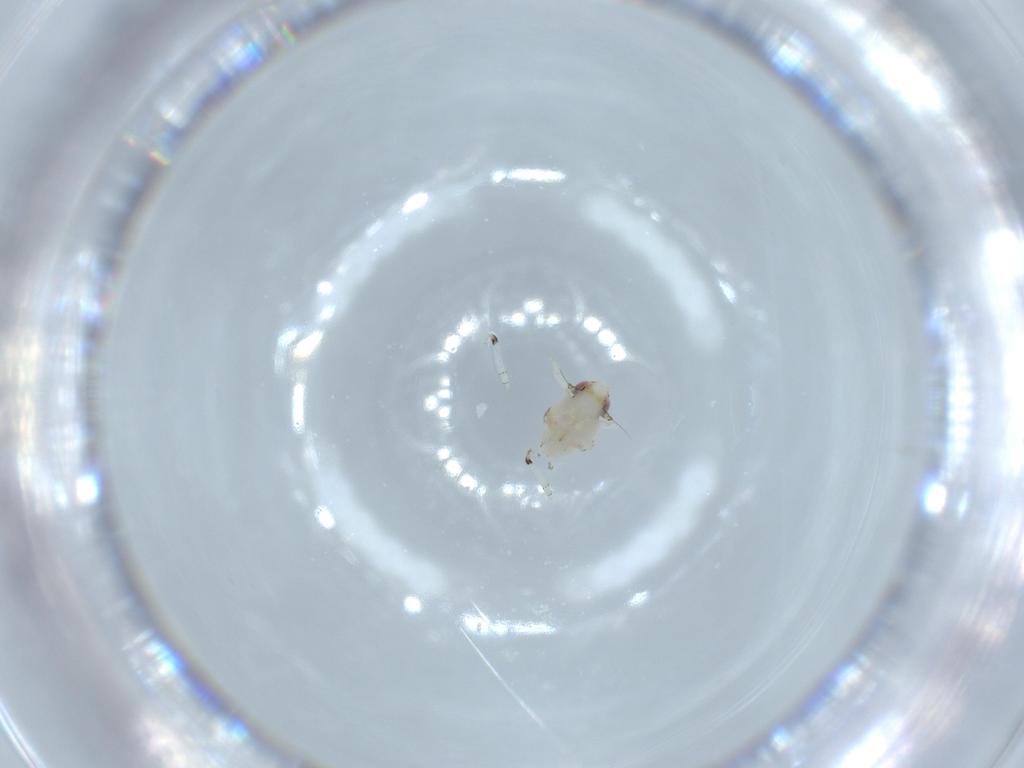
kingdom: Animalia
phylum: Arthropoda
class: Insecta
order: Hemiptera
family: Nogodinidae
